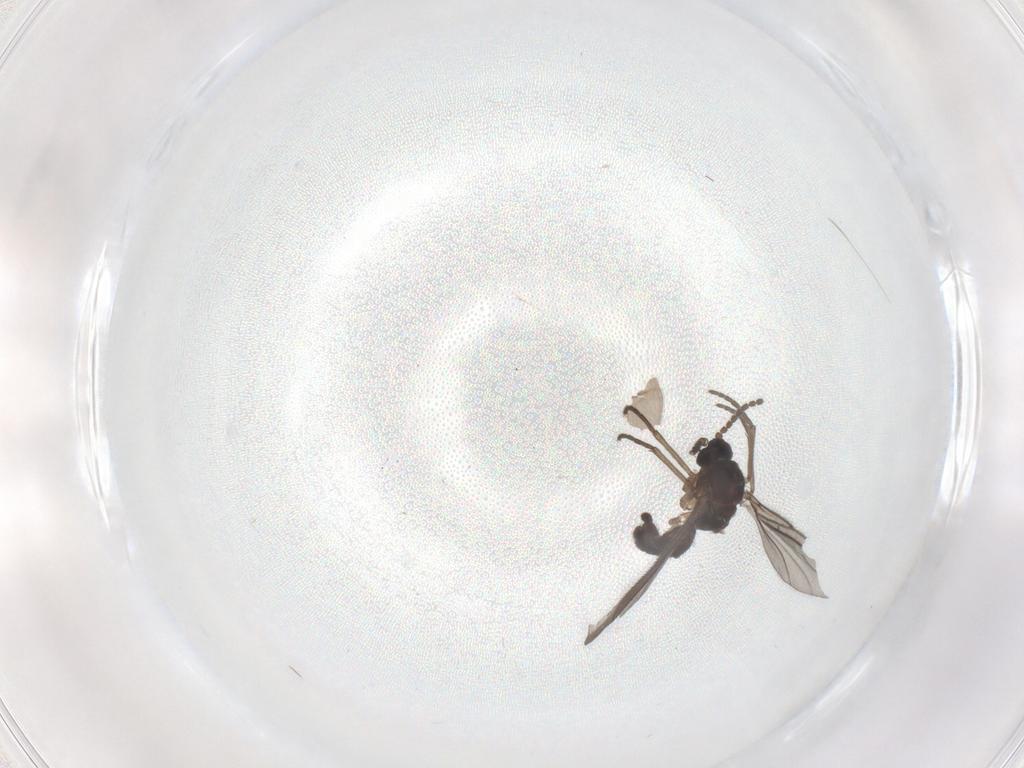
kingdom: Animalia
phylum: Arthropoda
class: Insecta
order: Diptera
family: Sciaridae
